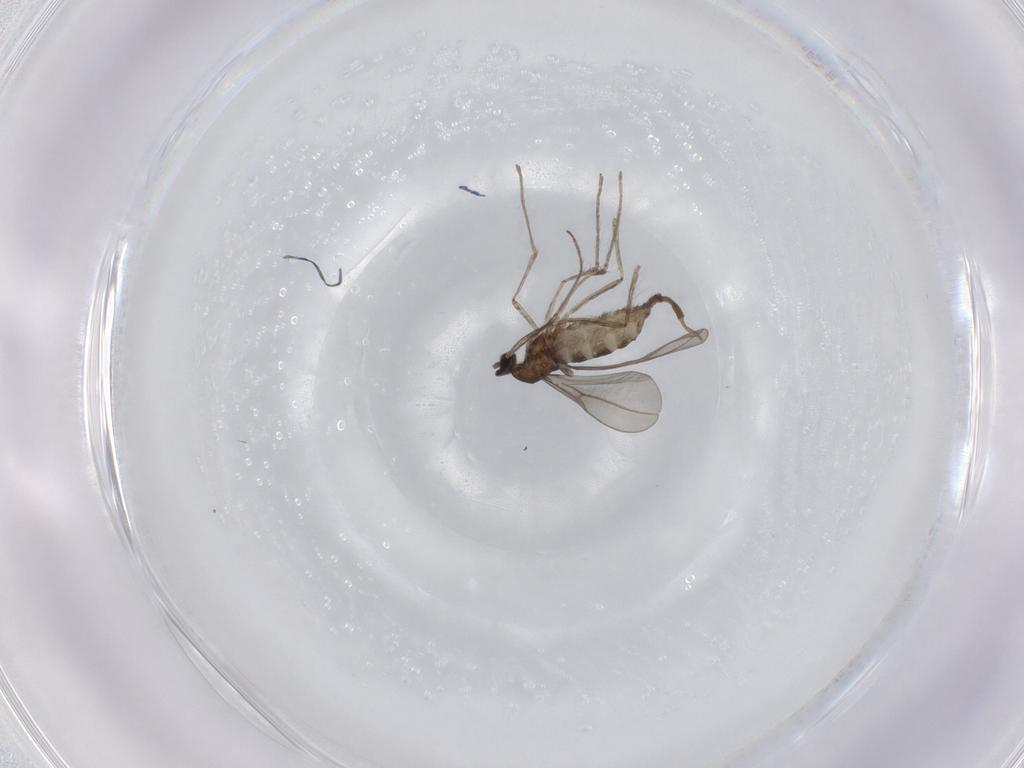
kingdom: Animalia
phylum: Arthropoda
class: Insecta
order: Diptera
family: Cecidomyiidae
